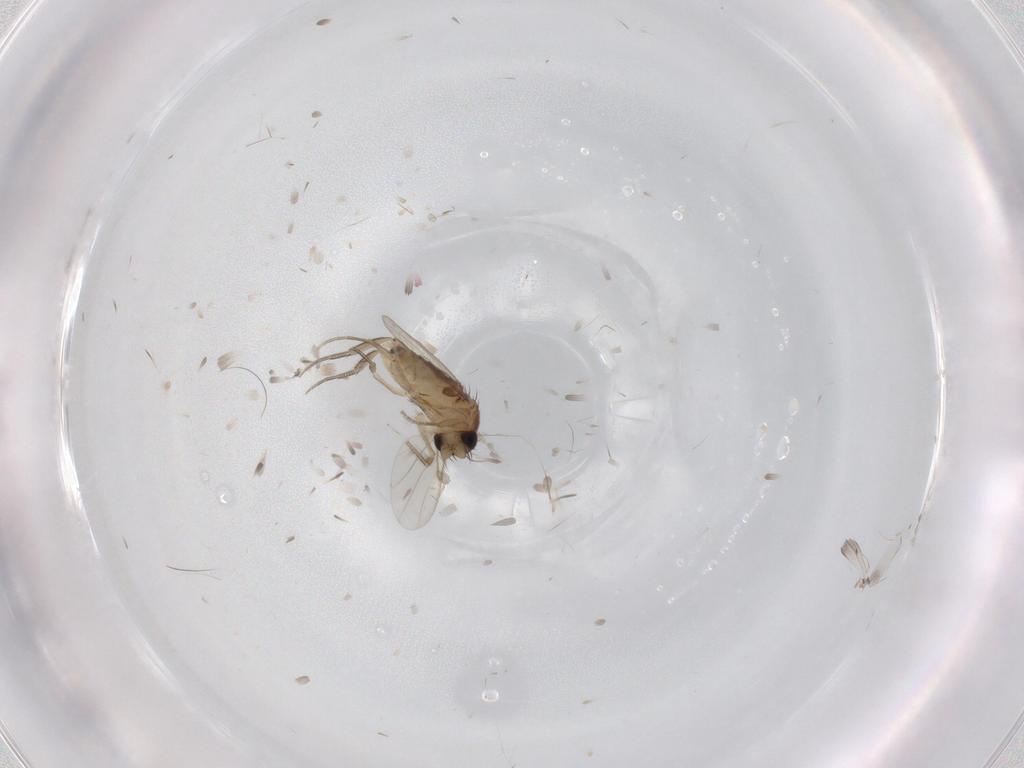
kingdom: Animalia
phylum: Arthropoda
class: Insecta
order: Diptera
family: Phoridae
